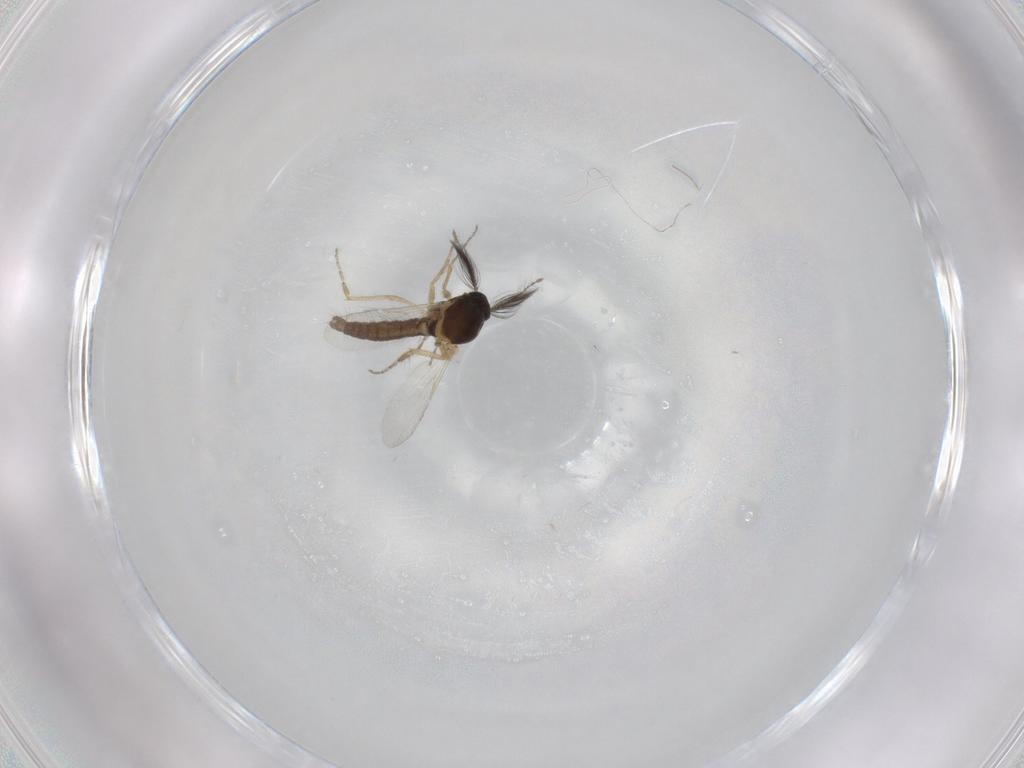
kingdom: Animalia
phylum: Arthropoda
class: Insecta
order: Diptera
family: Ceratopogonidae
